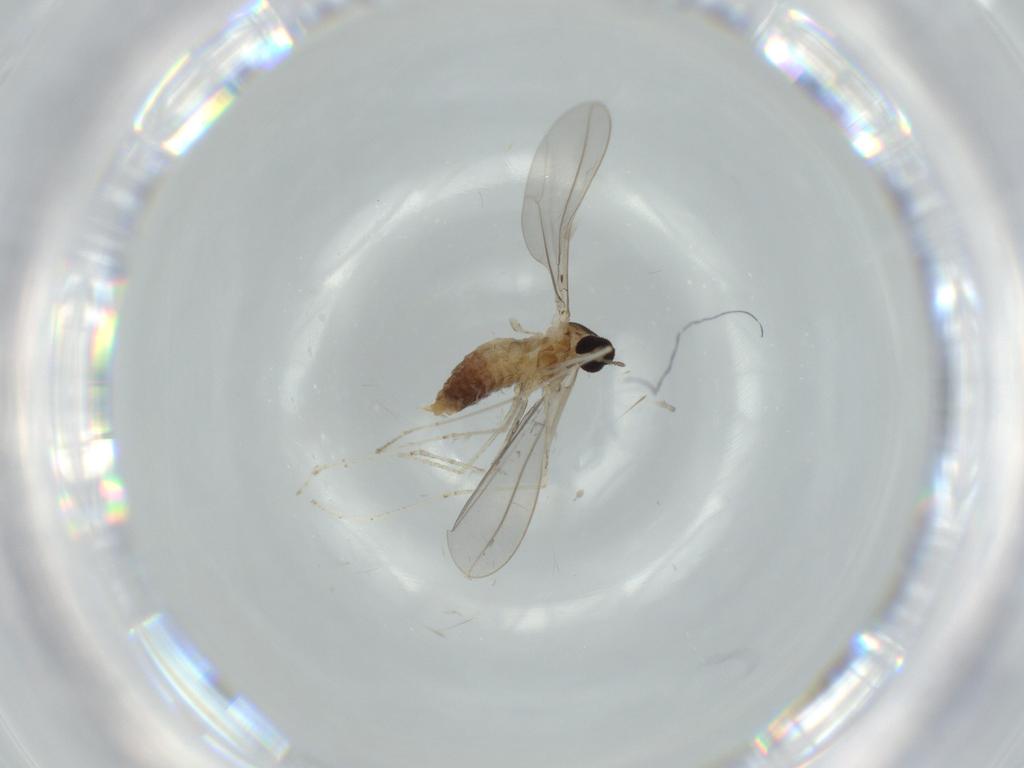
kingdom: Animalia
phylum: Arthropoda
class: Insecta
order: Diptera
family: Cecidomyiidae
